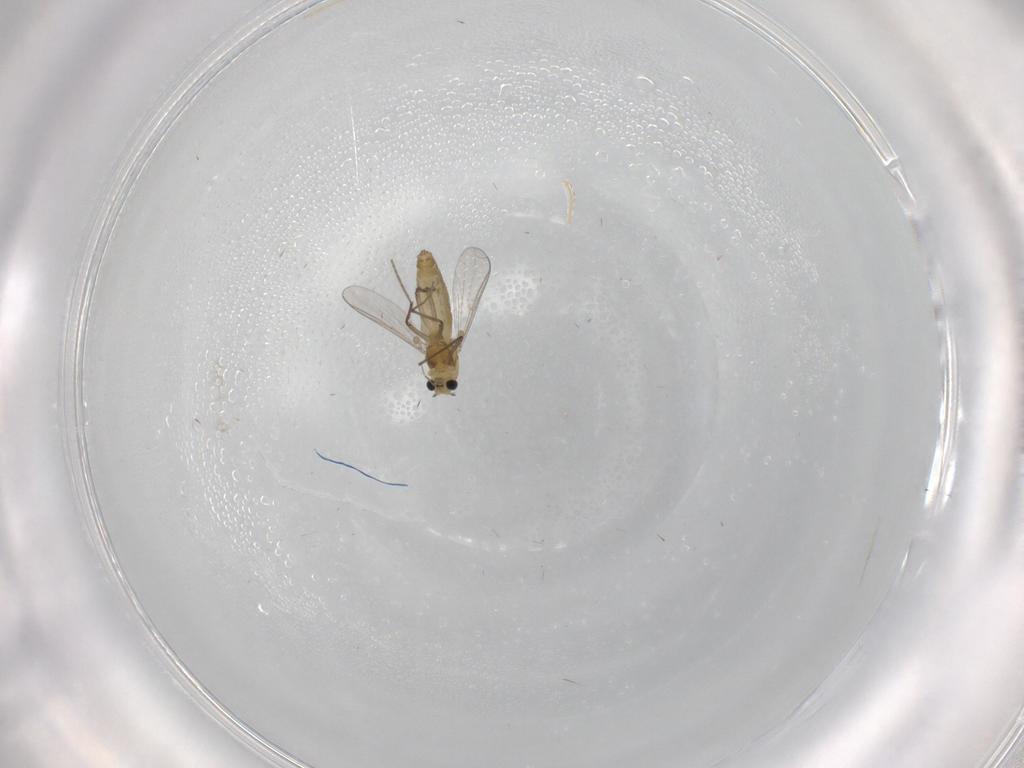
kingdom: Animalia
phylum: Arthropoda
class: Insecta
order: Diptera
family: Chironomidae
